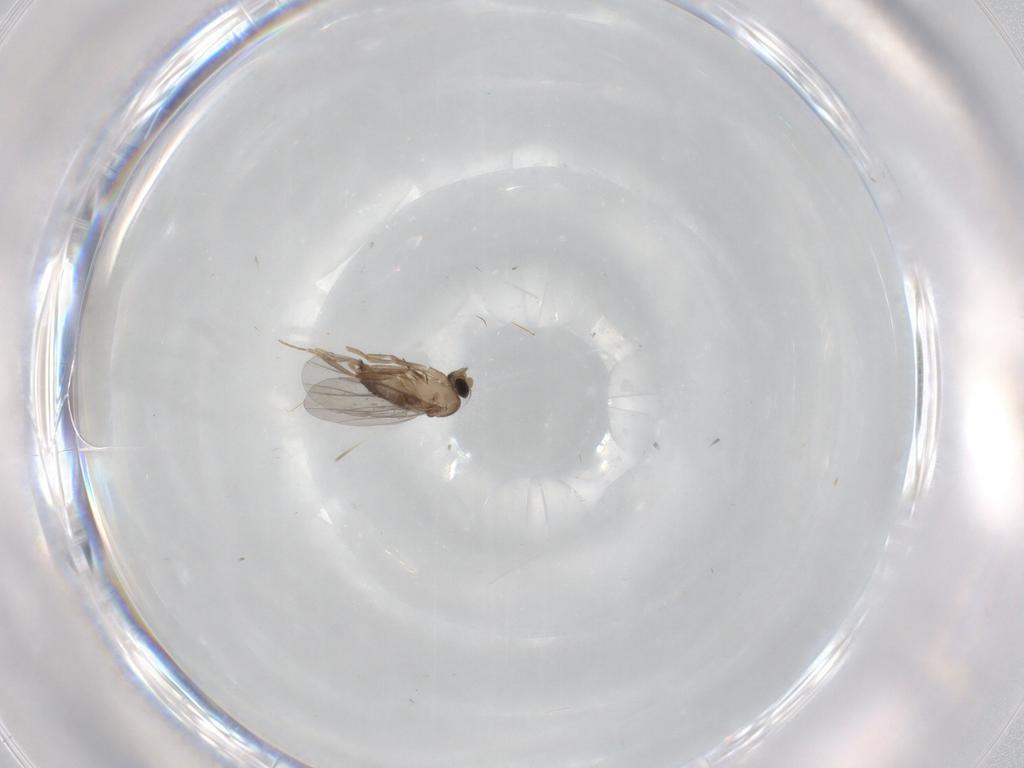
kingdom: Animalia
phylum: Arthropoda
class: Insecta
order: Diptera
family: Ceratopogonidae
